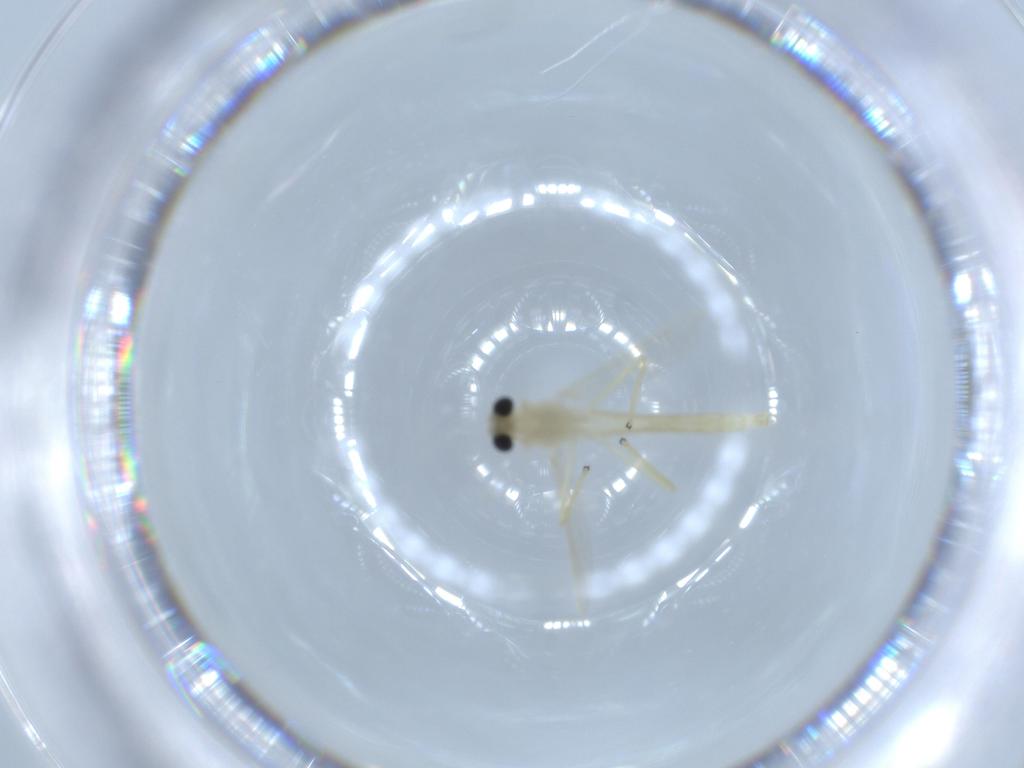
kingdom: Animalia
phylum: Arthropoda
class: Insecta
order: Diptera
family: Chironomidae
